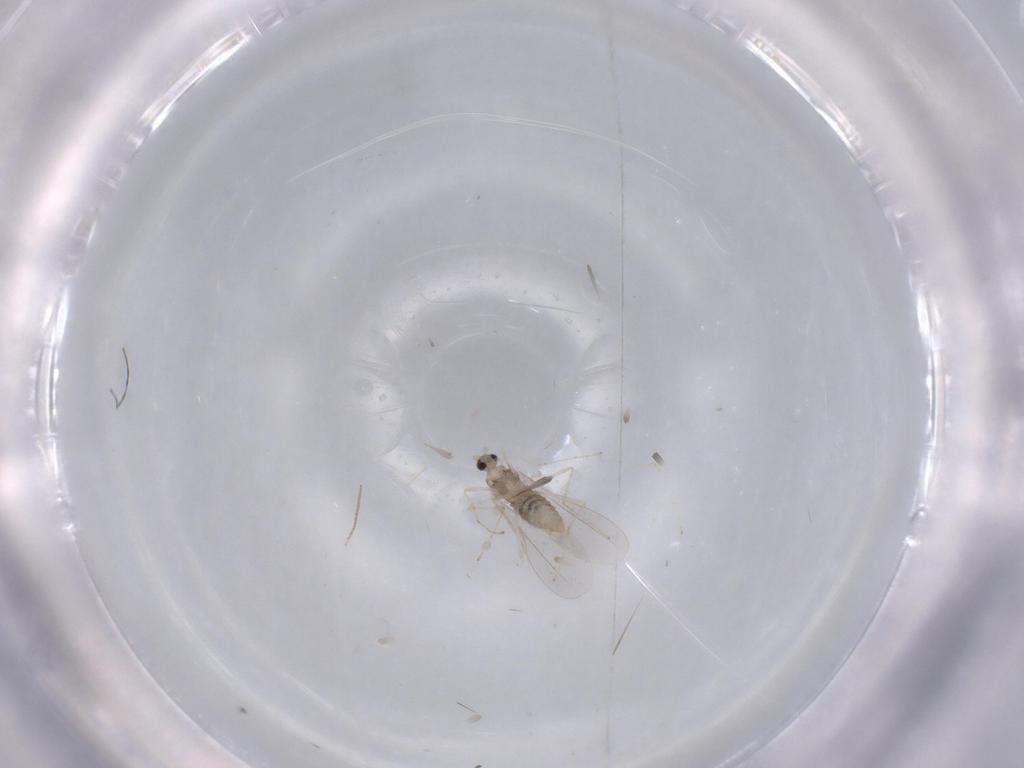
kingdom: Animalia
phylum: Arthropoda
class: Insecta
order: Diptera
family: Cecidomyiidae
